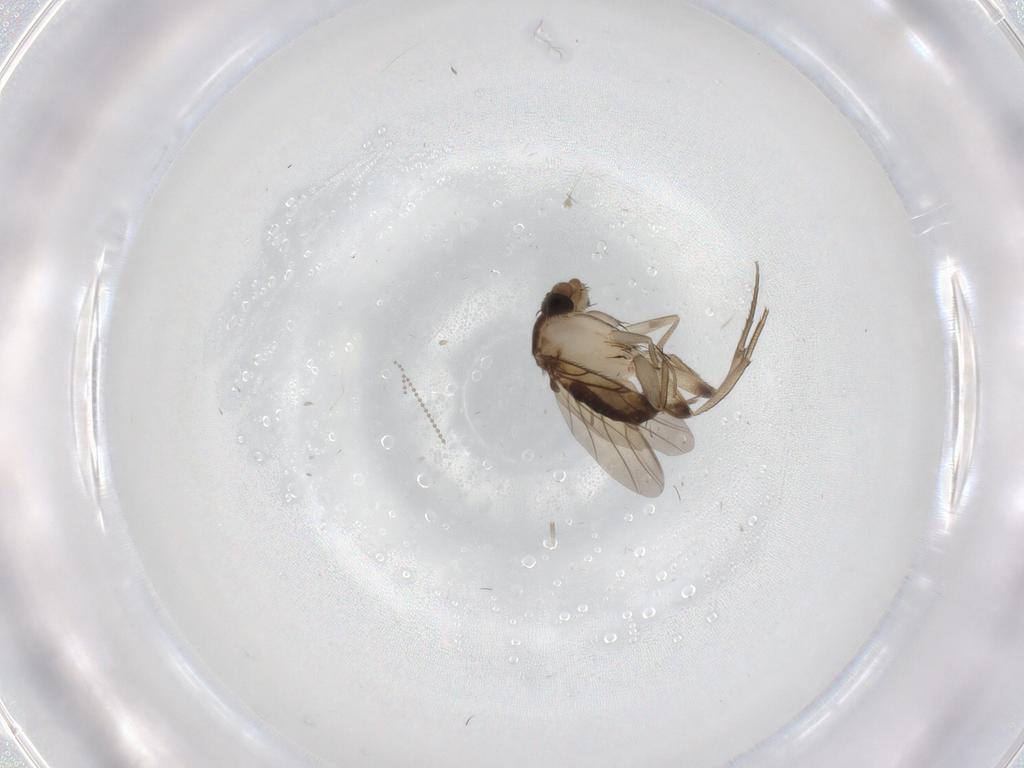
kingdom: Animalia
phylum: Arthropoda
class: Insecta
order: Diptera
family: Phoridae
